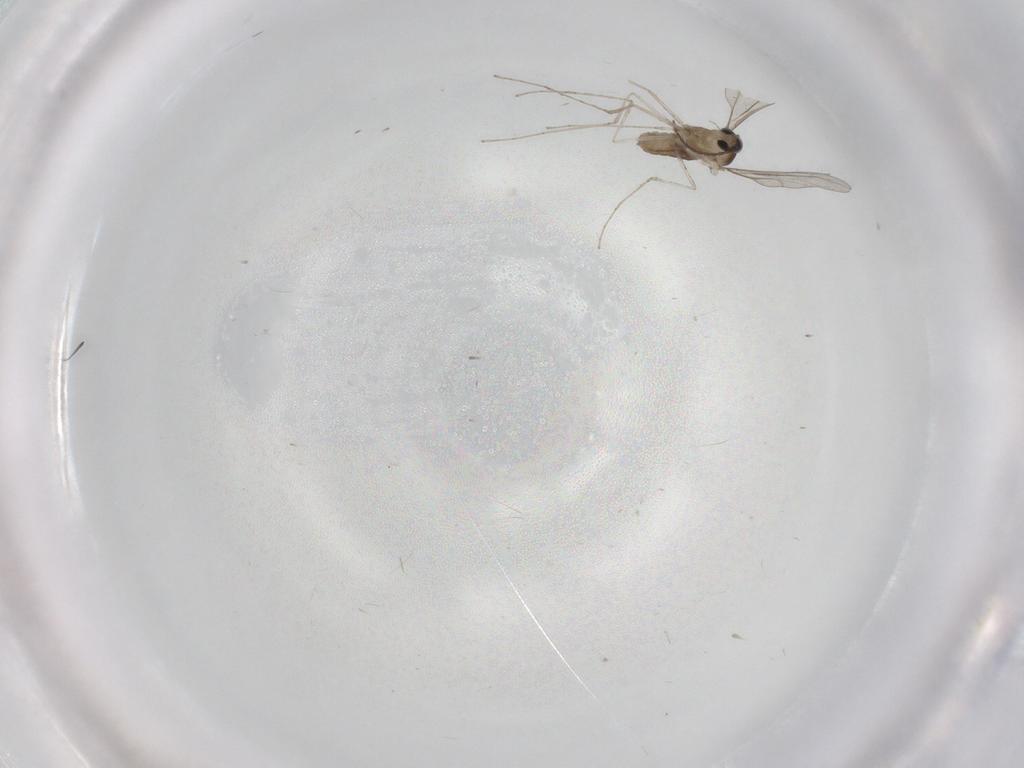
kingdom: Animalia
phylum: Arthropoda
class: Insecta
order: Diptera
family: Cecidomyiidae
